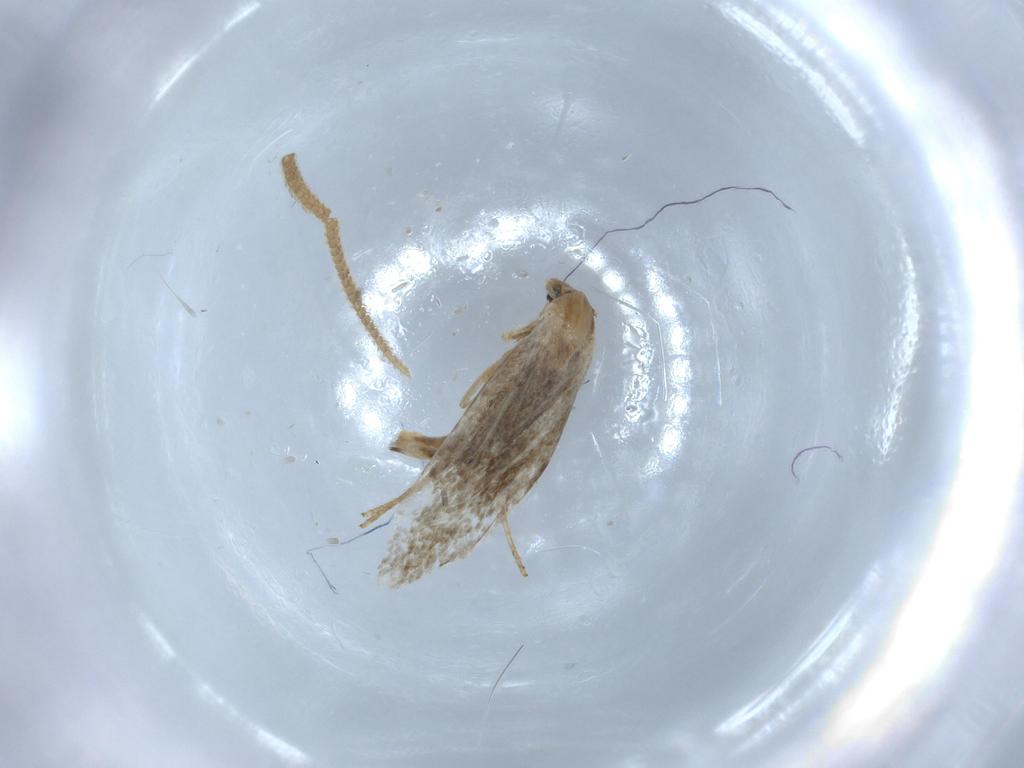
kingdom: Animalia
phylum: Arthropoda
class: Insecta
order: Lepidoptera
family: Tineidae
